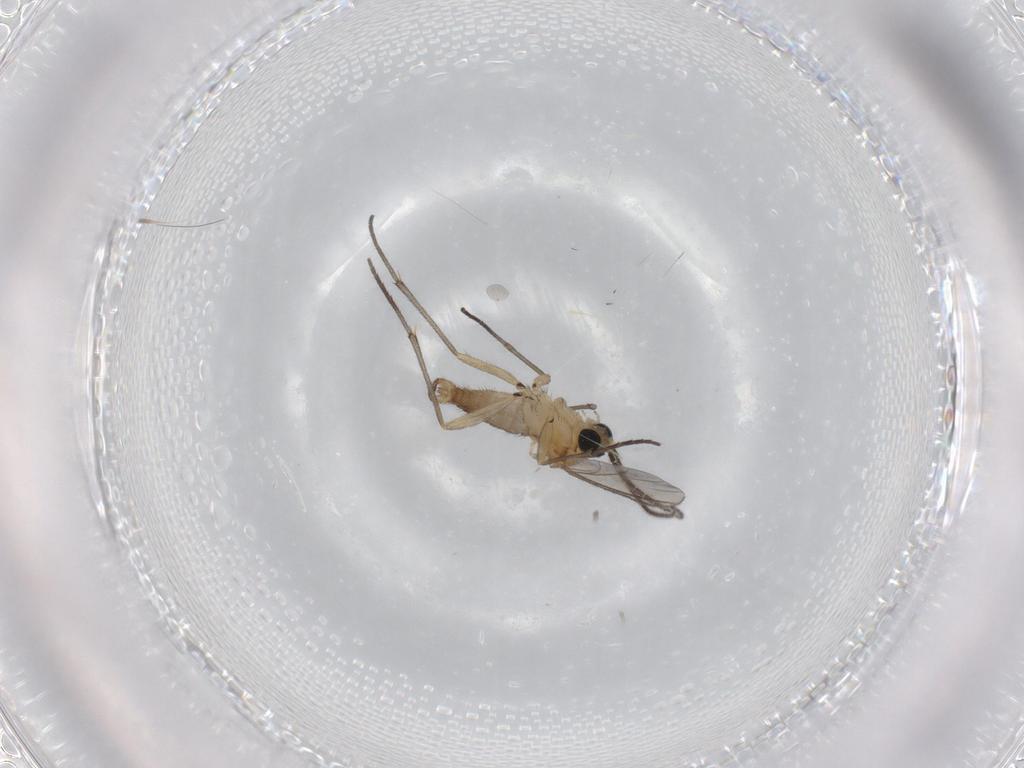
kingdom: Animalia
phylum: Arthropoda
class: Insecta
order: Diptera
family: Sciaridae
